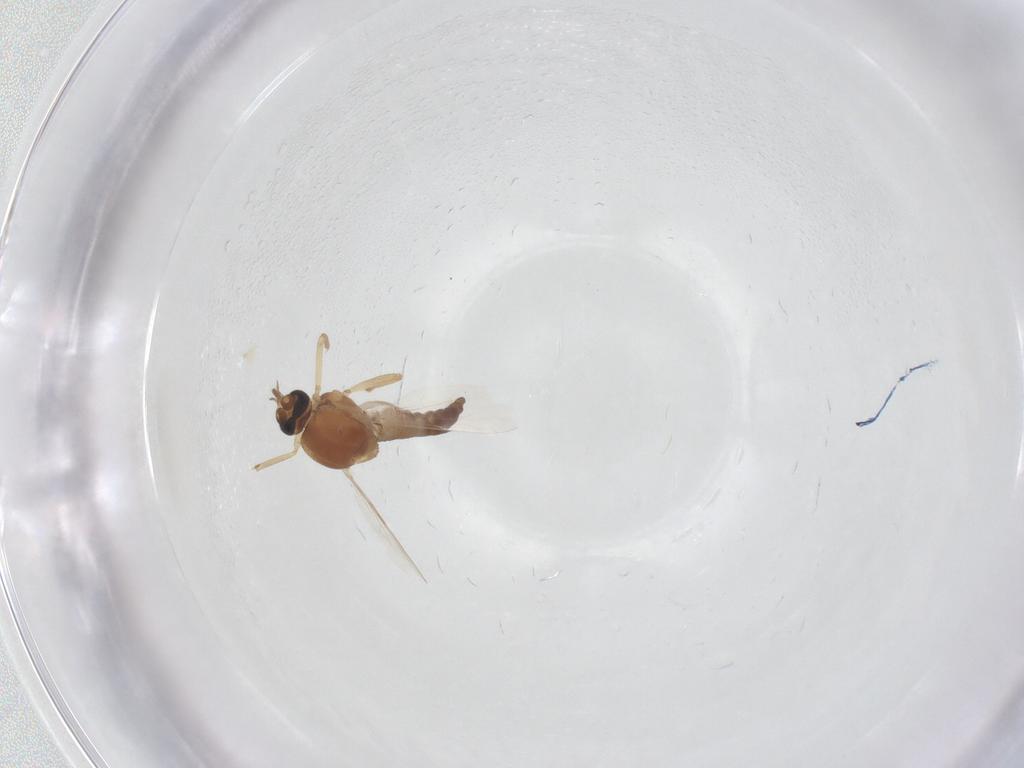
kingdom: Animalia
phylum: Arthropoda
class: Insecta
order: Diptera
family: Ceratopogonidae
